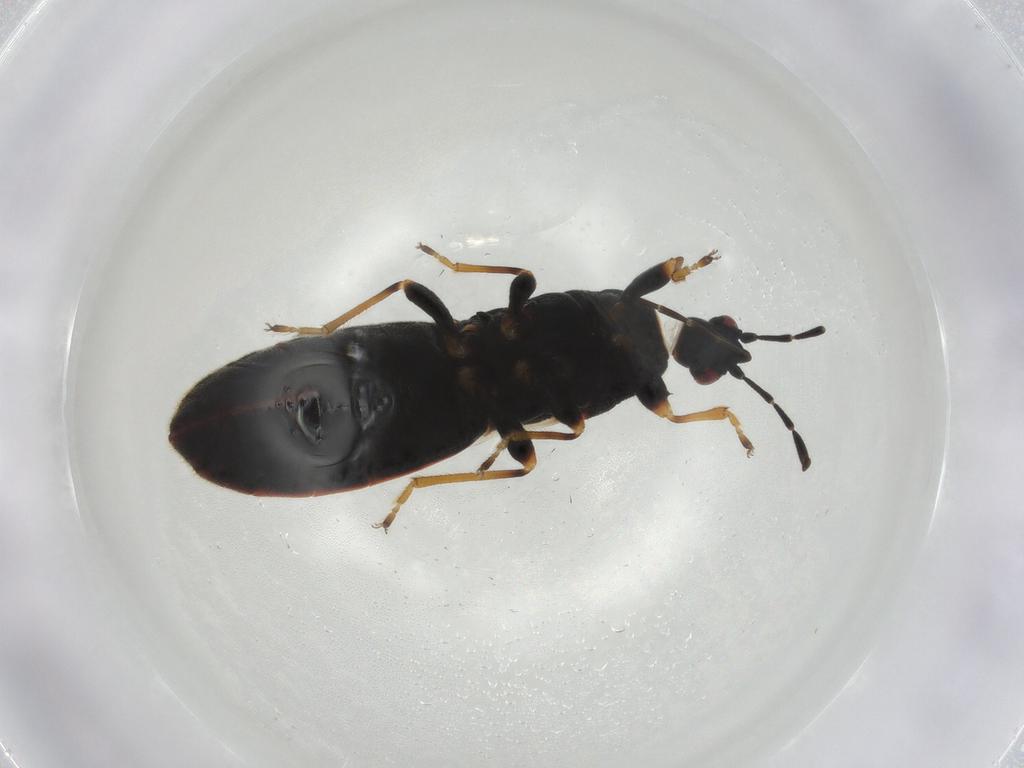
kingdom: Animalia
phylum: Arthropoda
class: Insecta
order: Hemiptera
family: Blissidae
